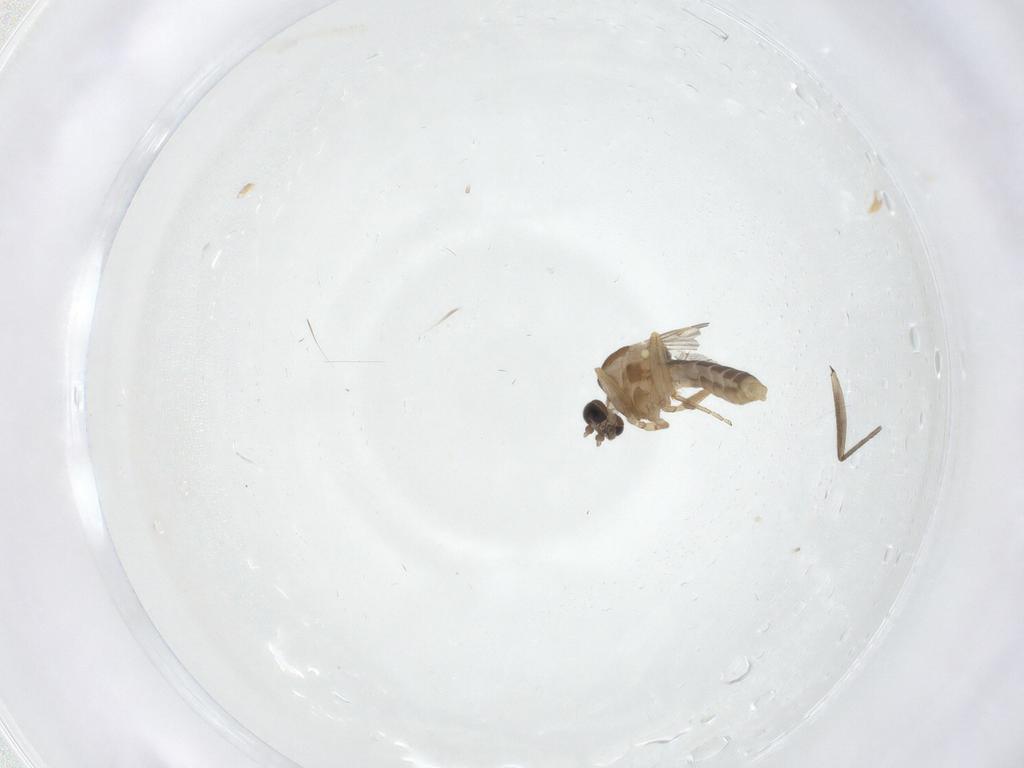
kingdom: Animalia
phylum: Arthropoda
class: Insecta
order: Diptera
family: Ceratopogonidae
